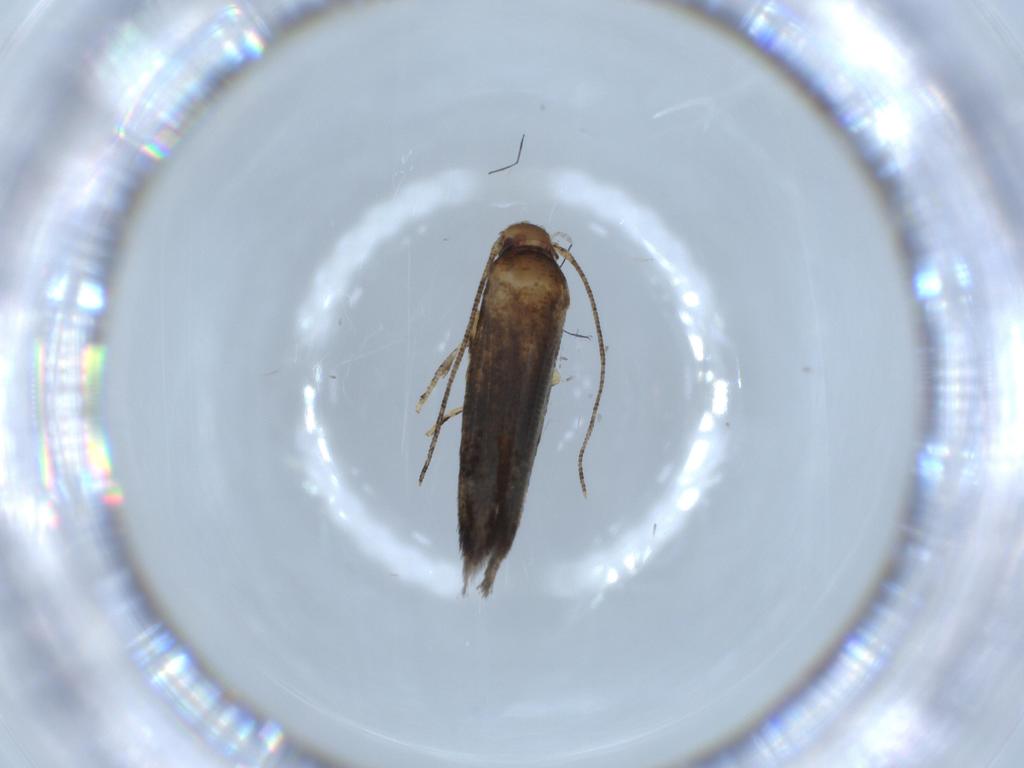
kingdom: Animalia
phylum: Arthropoda
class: Insecta
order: Lepidoptera
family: Momphidae
